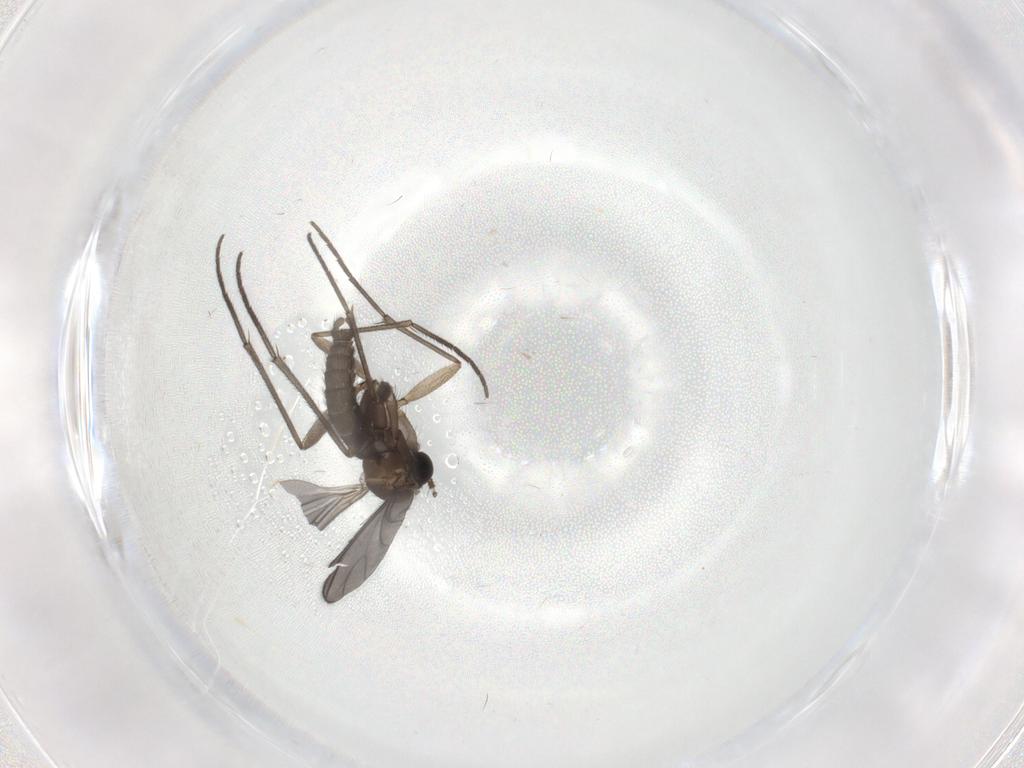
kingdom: Animalia
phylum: Arthropoda
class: Insecta
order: Diptera
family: Sciaridae
